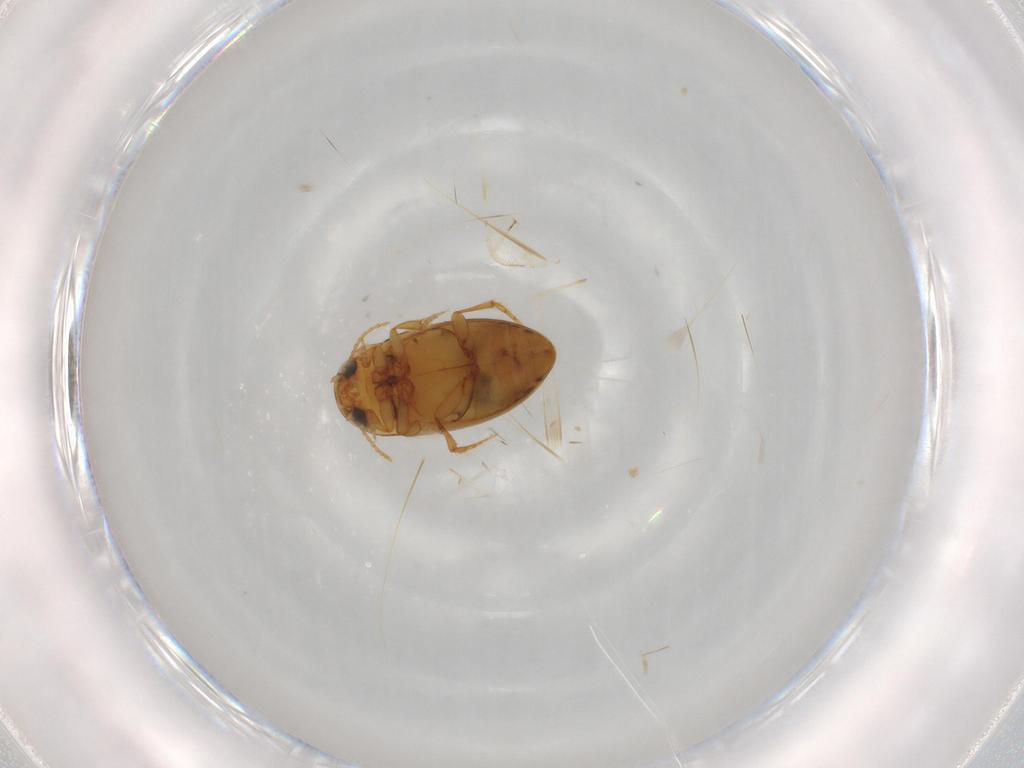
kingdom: Animalia
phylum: Arthropoda
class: Insecta
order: Coleoptera
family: Dytiscidae
